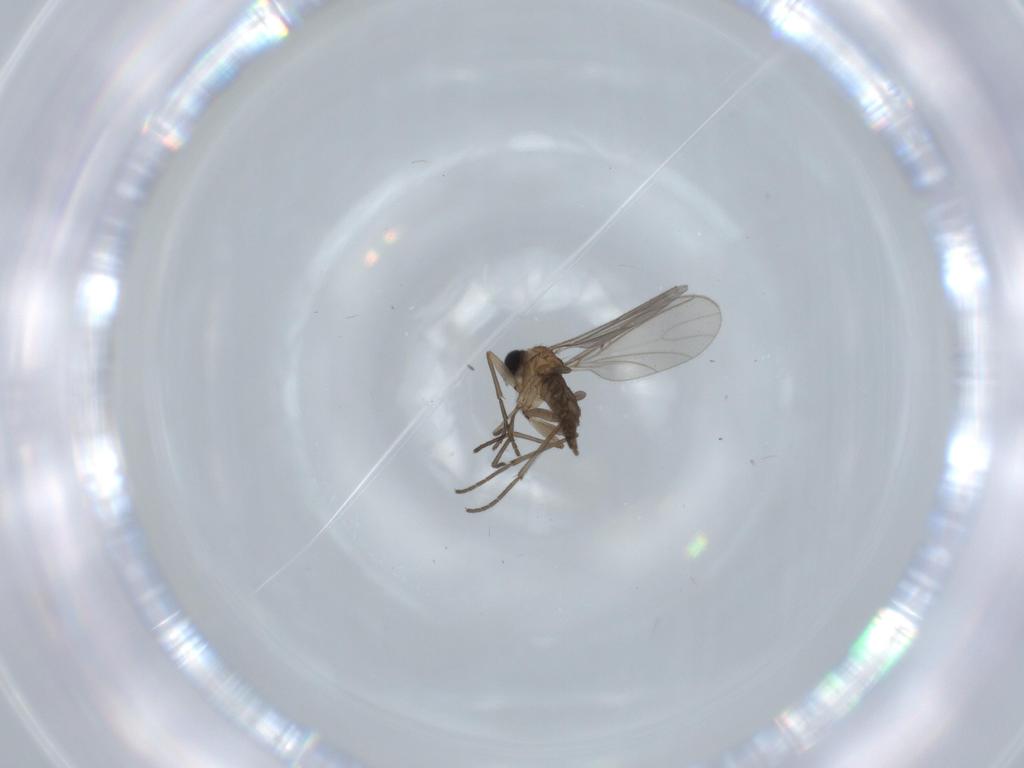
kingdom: Animalia
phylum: Arthropoda
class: Insecta
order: Diptera
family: Sciaridae
